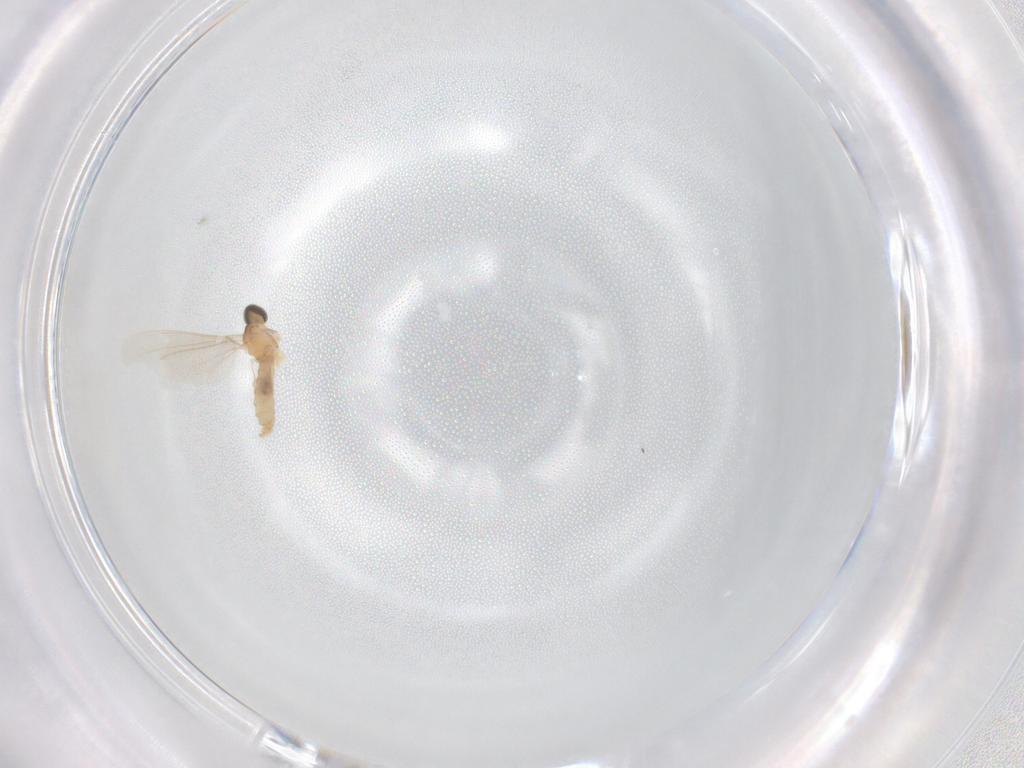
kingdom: Animalia
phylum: Arthropoda
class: Insecta
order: Diptera
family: Cecidomyiidae
